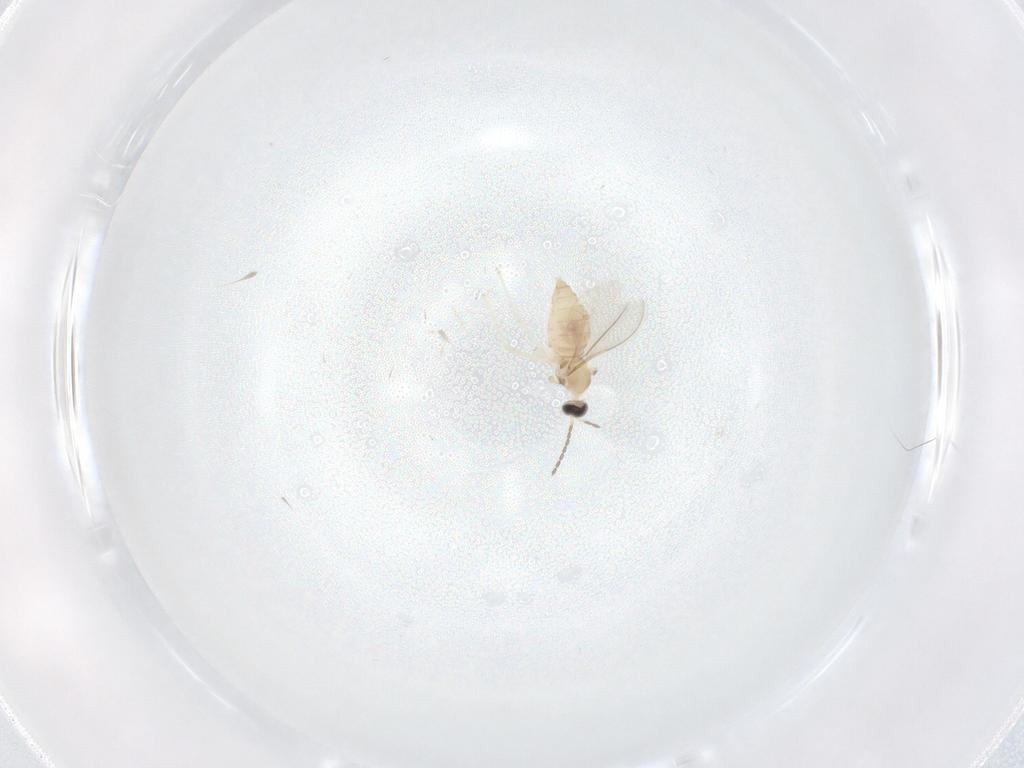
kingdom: Animalia
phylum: Arthropoda
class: Insecta
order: Diptera
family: Cecidomyiidae
